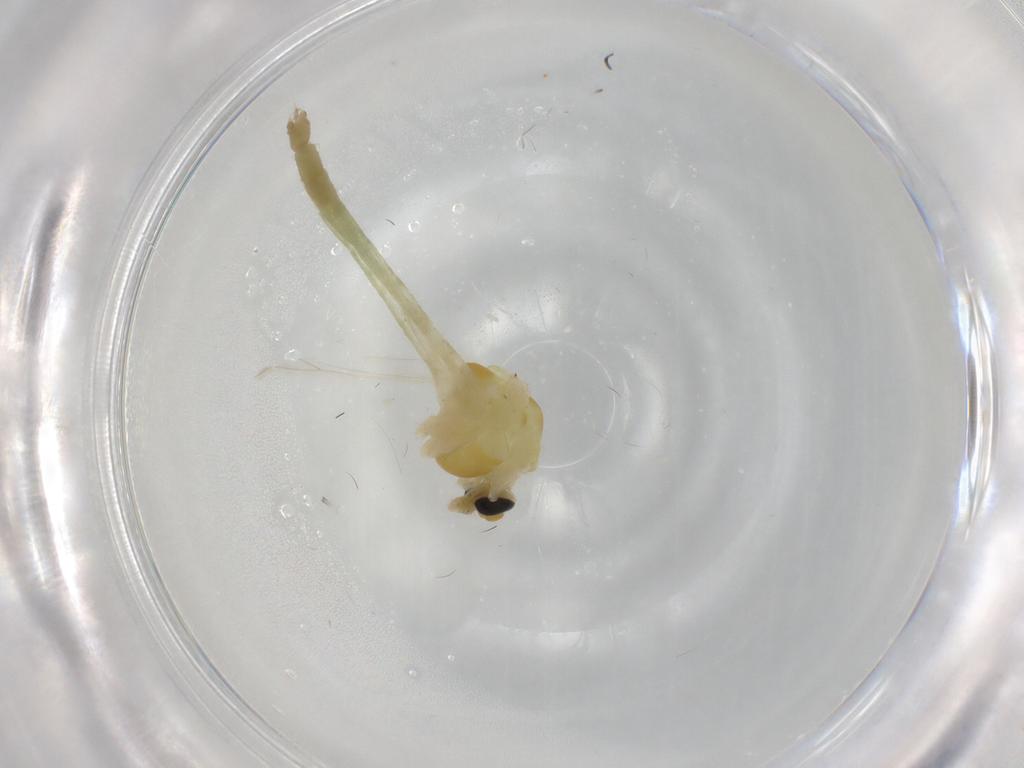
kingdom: Animalia
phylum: Arthropoda
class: Insecta
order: Diptera
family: Chironomidae
